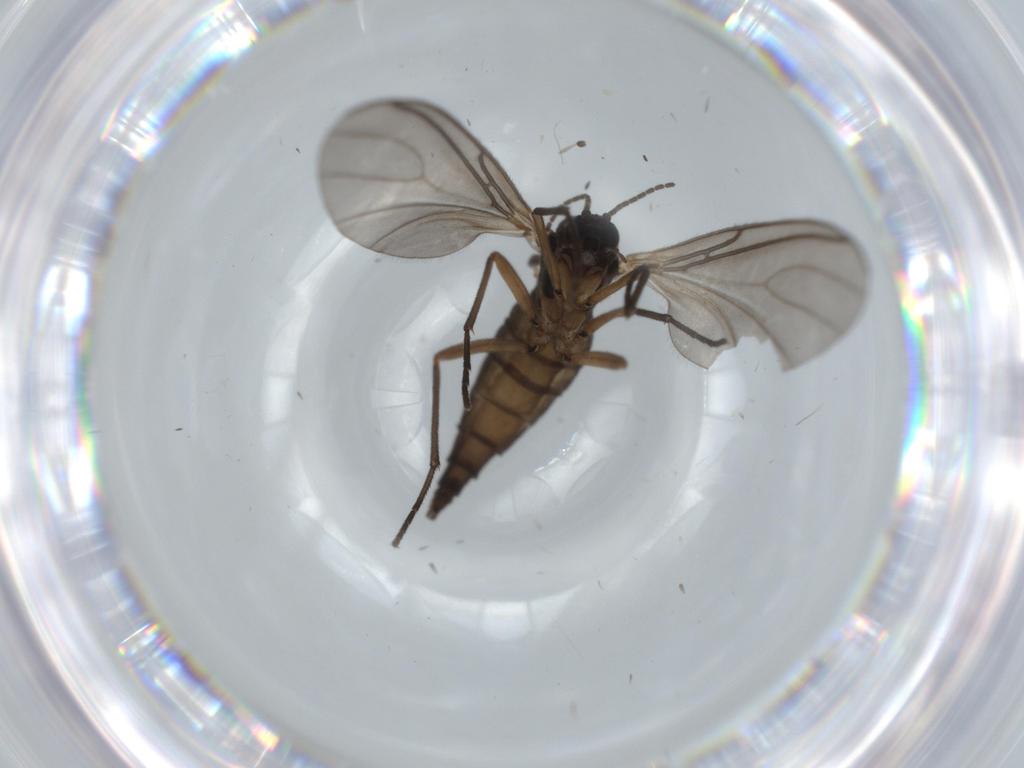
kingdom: Animalia
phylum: Arthropoda
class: Insecta
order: Diptera
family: Sciaridae
